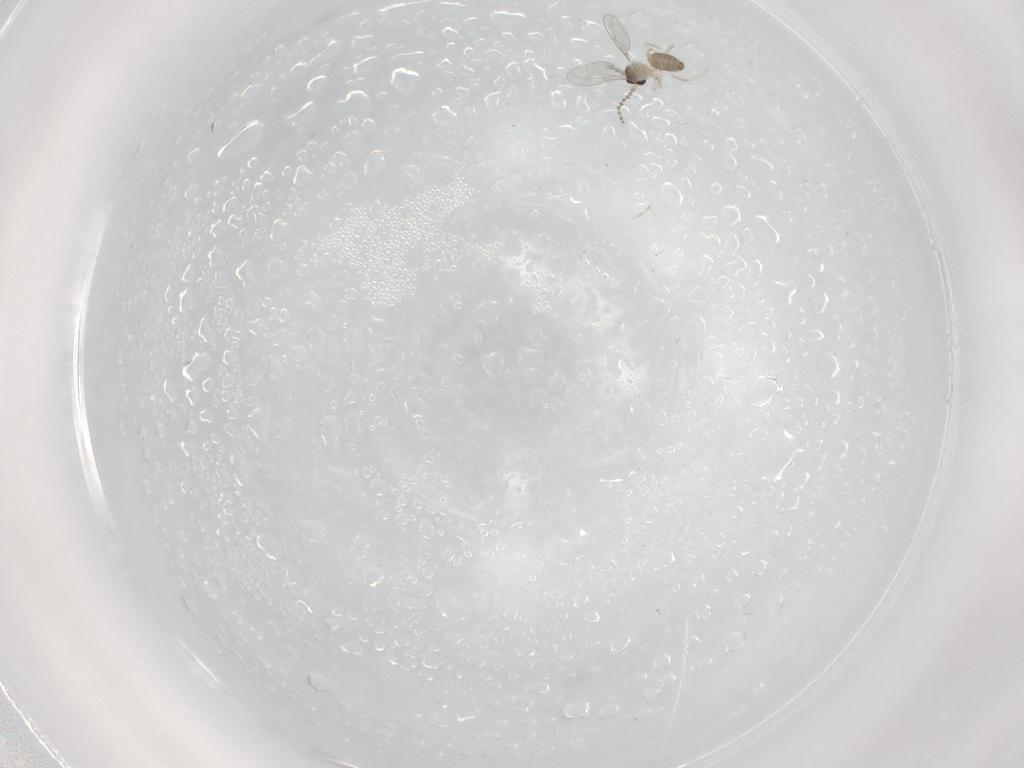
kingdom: Animalia
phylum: Arthropoda
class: Insecta
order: Diptera
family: Cecidomyiidae
